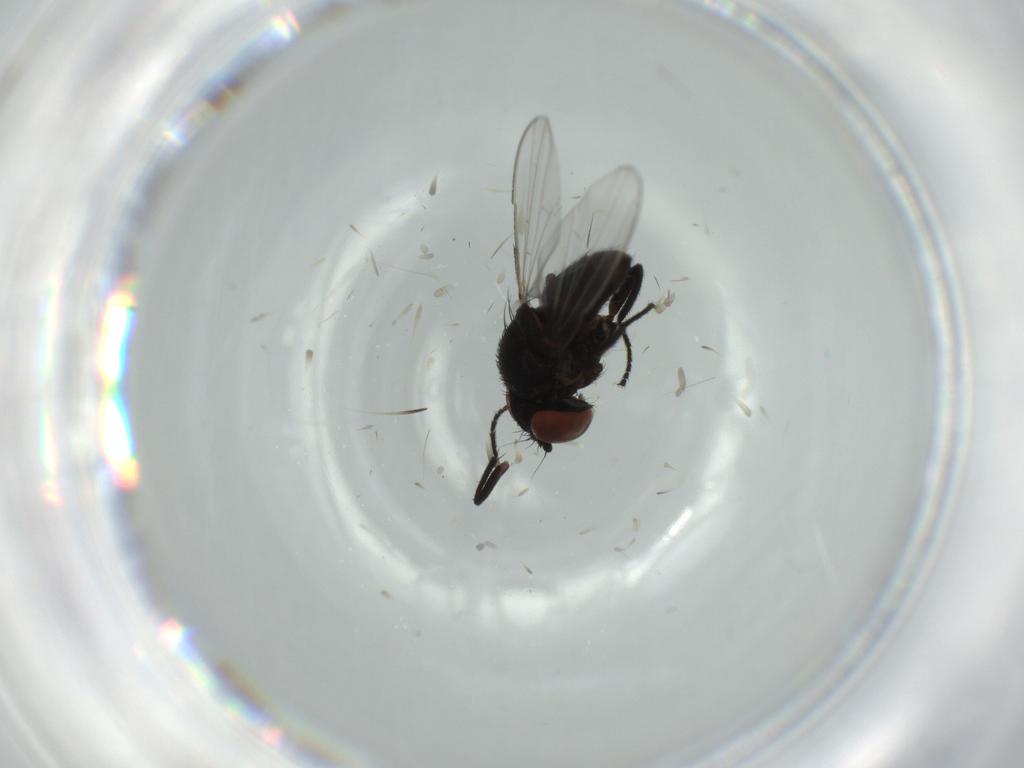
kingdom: Animalia
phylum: Arthropoda
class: Insecta
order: Diptera
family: Milichiidae
